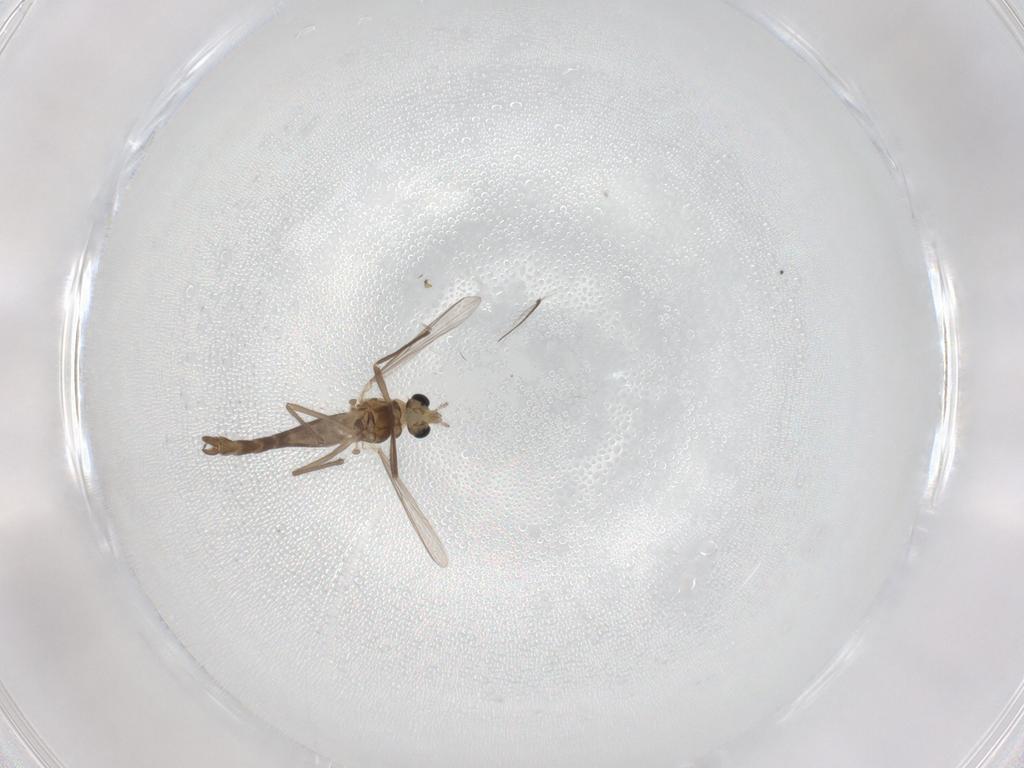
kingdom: Animalia
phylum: Arthropoda
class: Insecta
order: Diptera
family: Chironomidae
